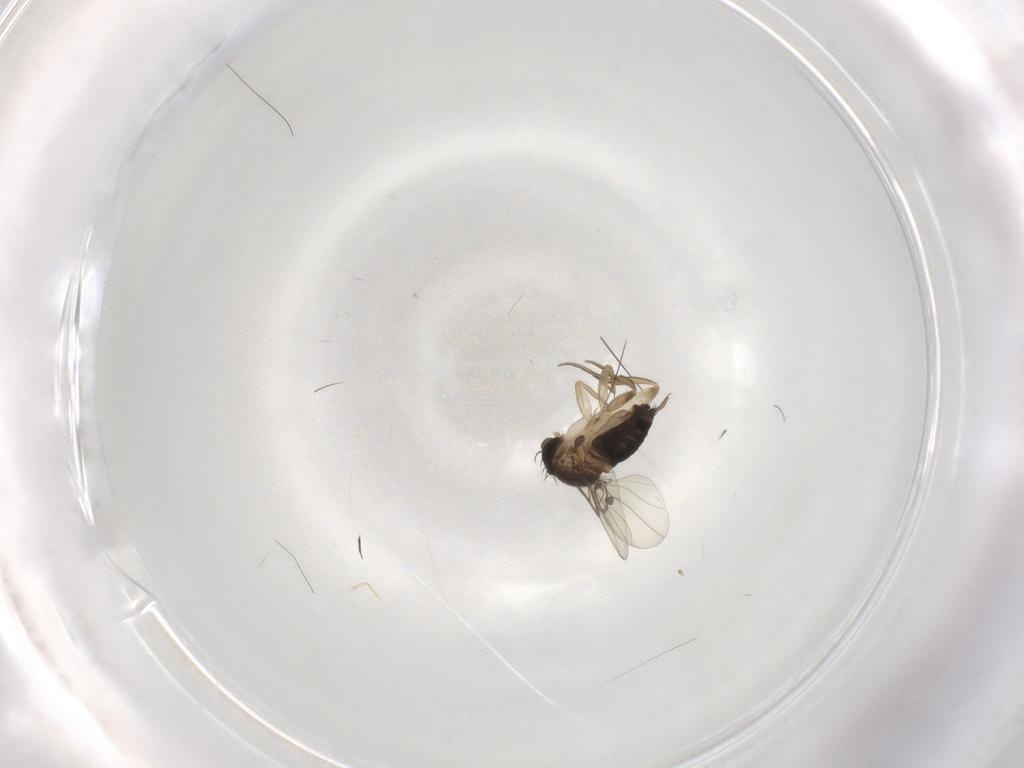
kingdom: Animalia
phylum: Arthropoda
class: Insecta
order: Diptera
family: Phoridae
